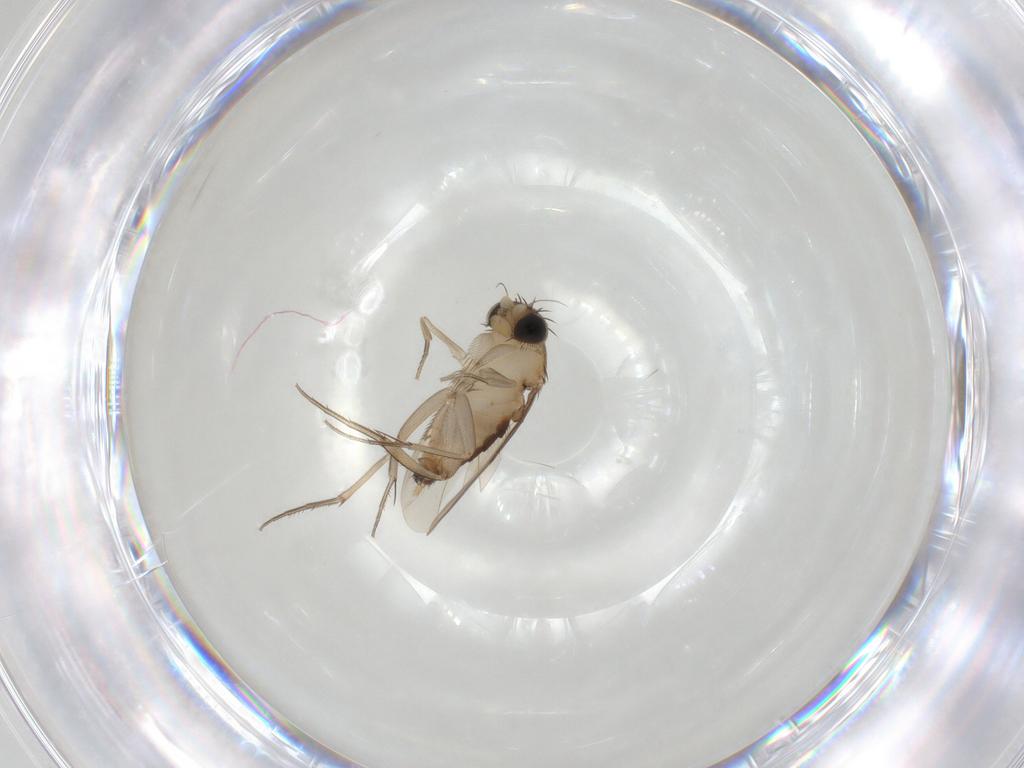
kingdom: Animalia
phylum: Arthropoda
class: Insecta
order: Diptera
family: Phoridae
